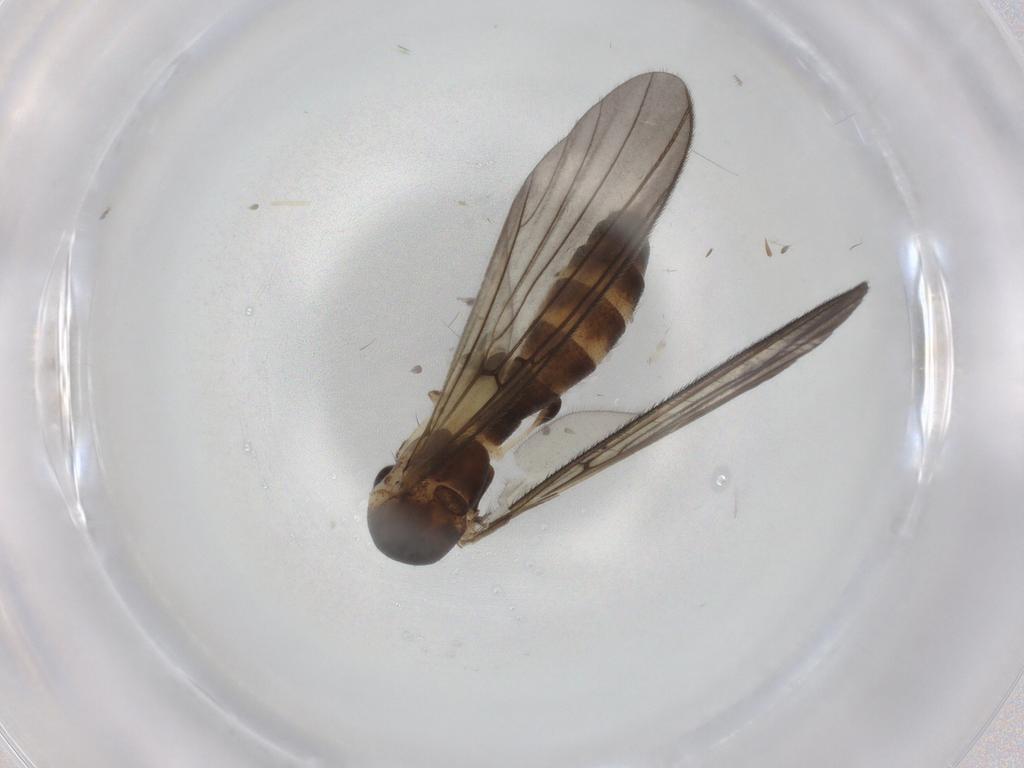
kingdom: Animalia
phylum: Arthropoda
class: Insecta
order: Diptera
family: Mycetophilidae
